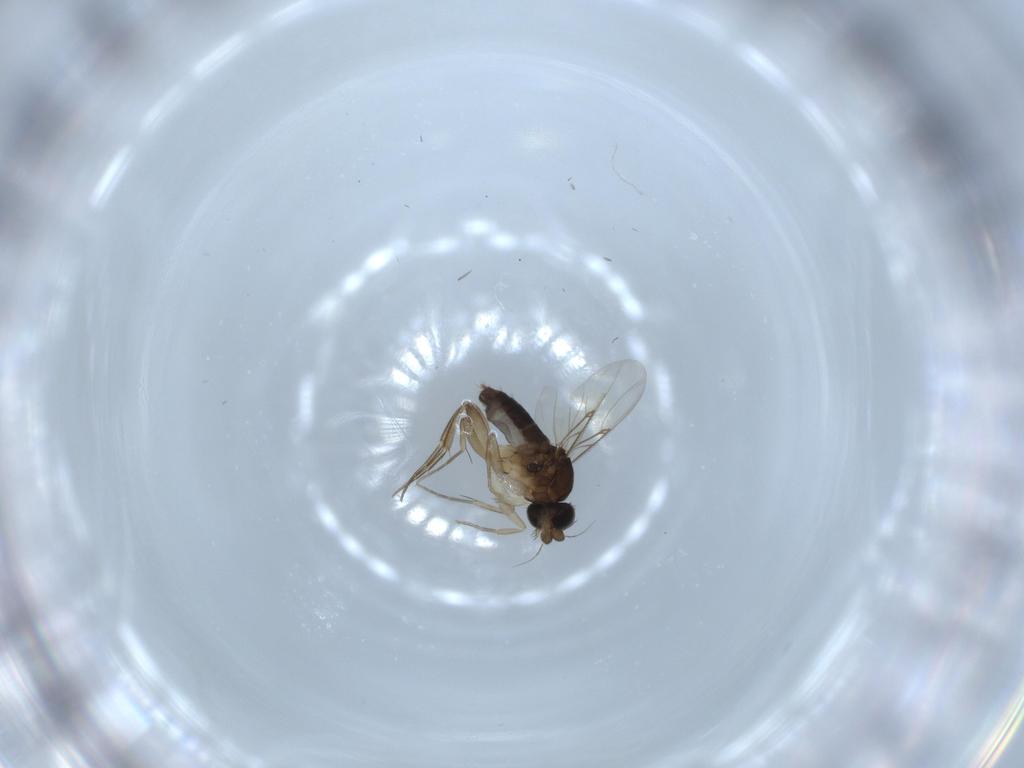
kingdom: Animalia
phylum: Arthropoda
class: Insecta
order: Diptera
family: Phoridae
